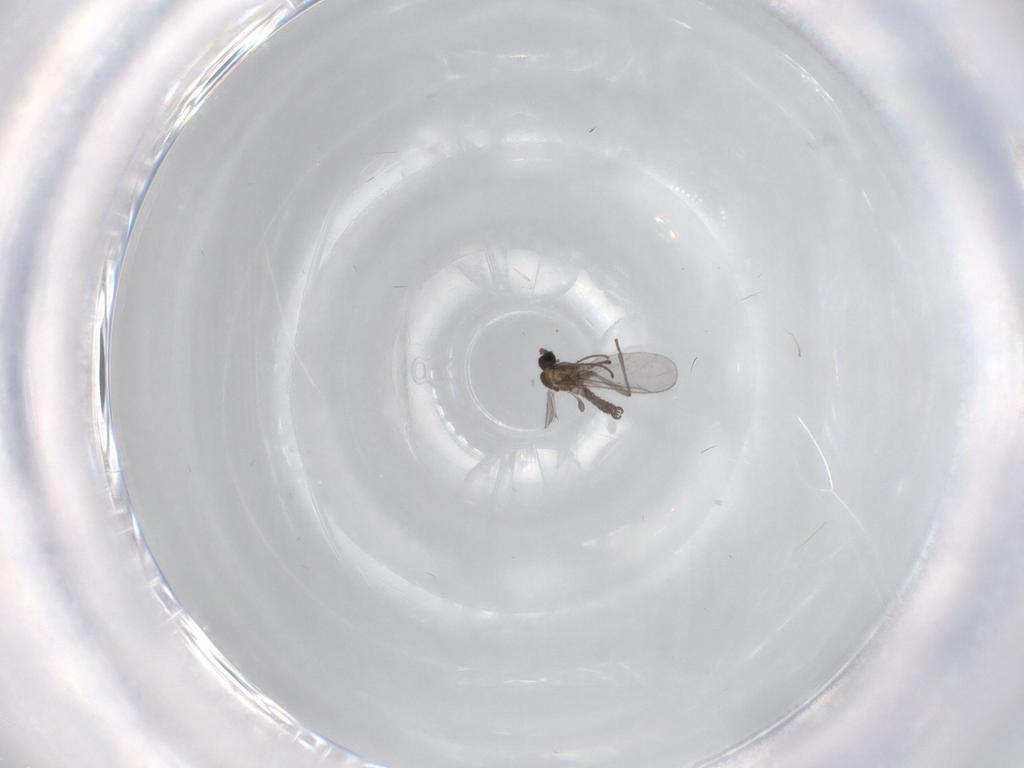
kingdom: Animalia
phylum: Arthropoda
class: Insecta
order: Diptera
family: Sciaridae
